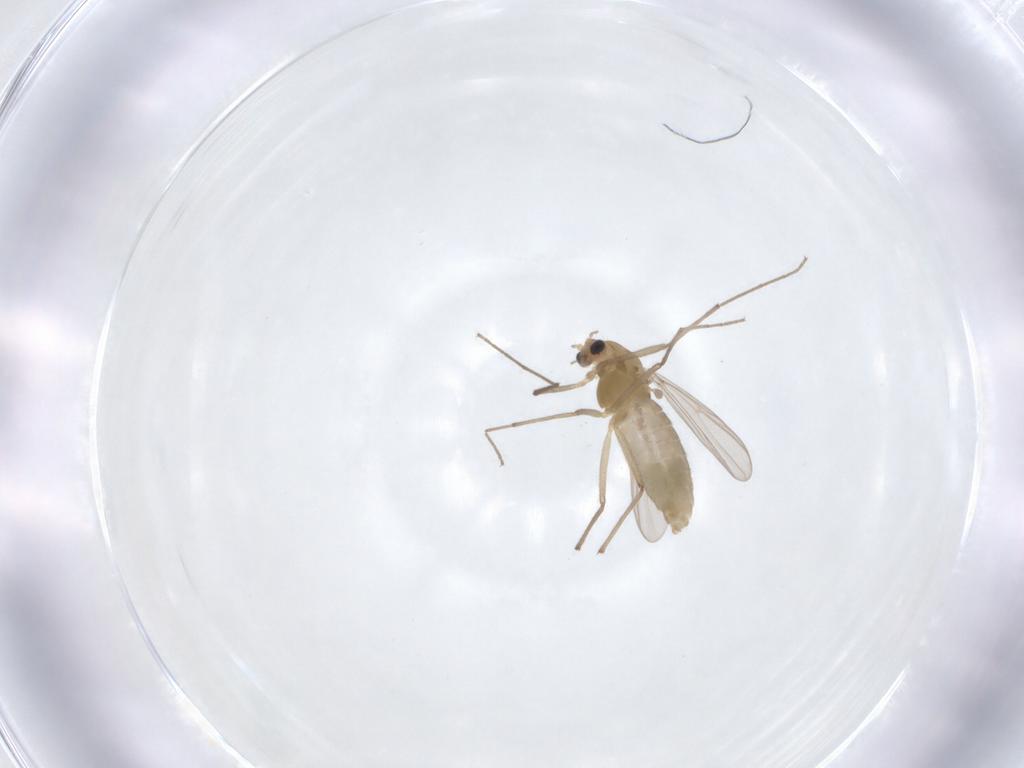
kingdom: Animalia
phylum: Arthropoda
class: Insecta
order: Diptera
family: Chironomidae
